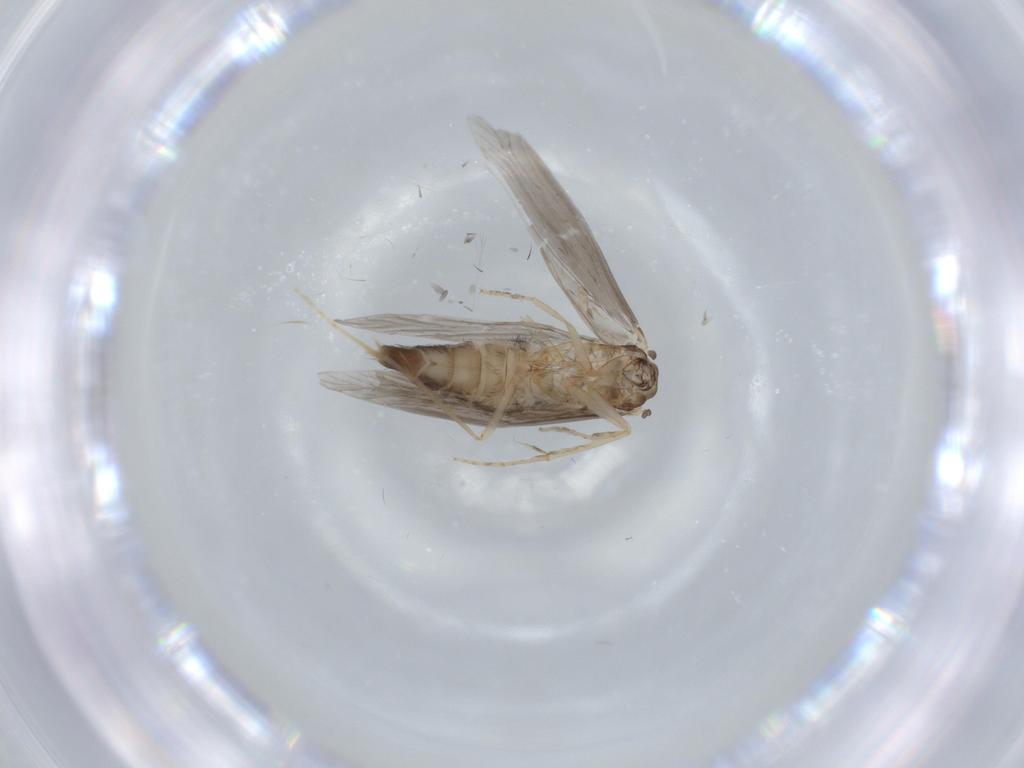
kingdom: Animalia
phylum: Arthropoda
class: Insecta
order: Trichoptera
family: Hydroptilidae
